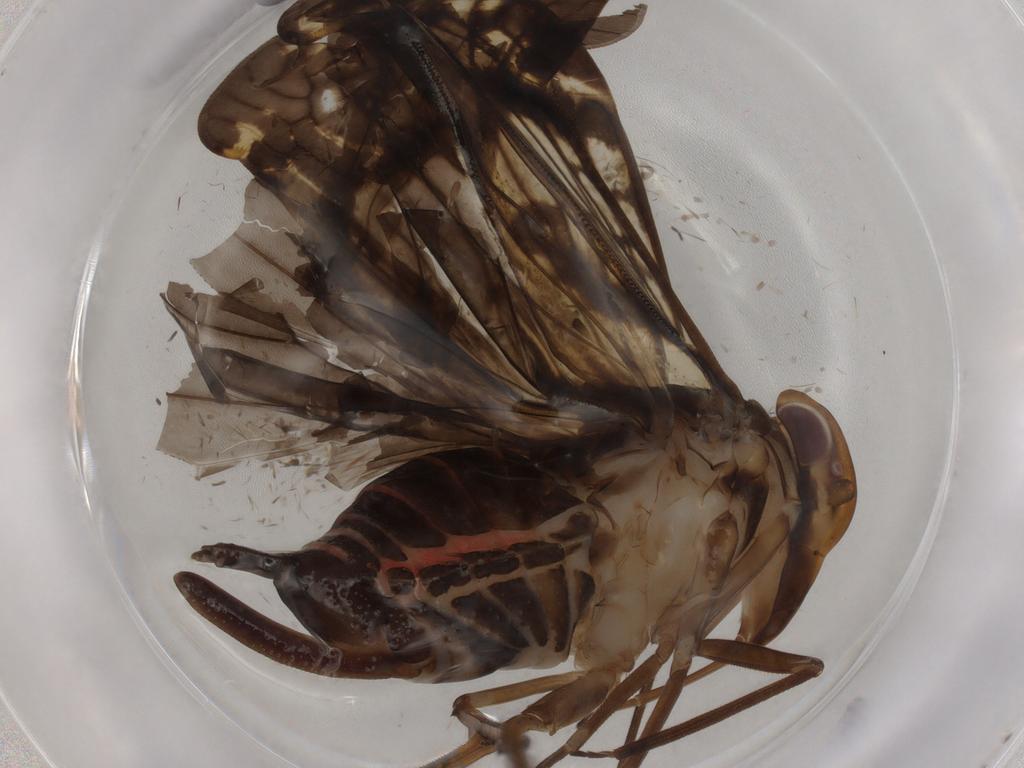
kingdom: Animalia
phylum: Arthropoda
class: Insecta
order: Hemiptera
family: Cixiidae
